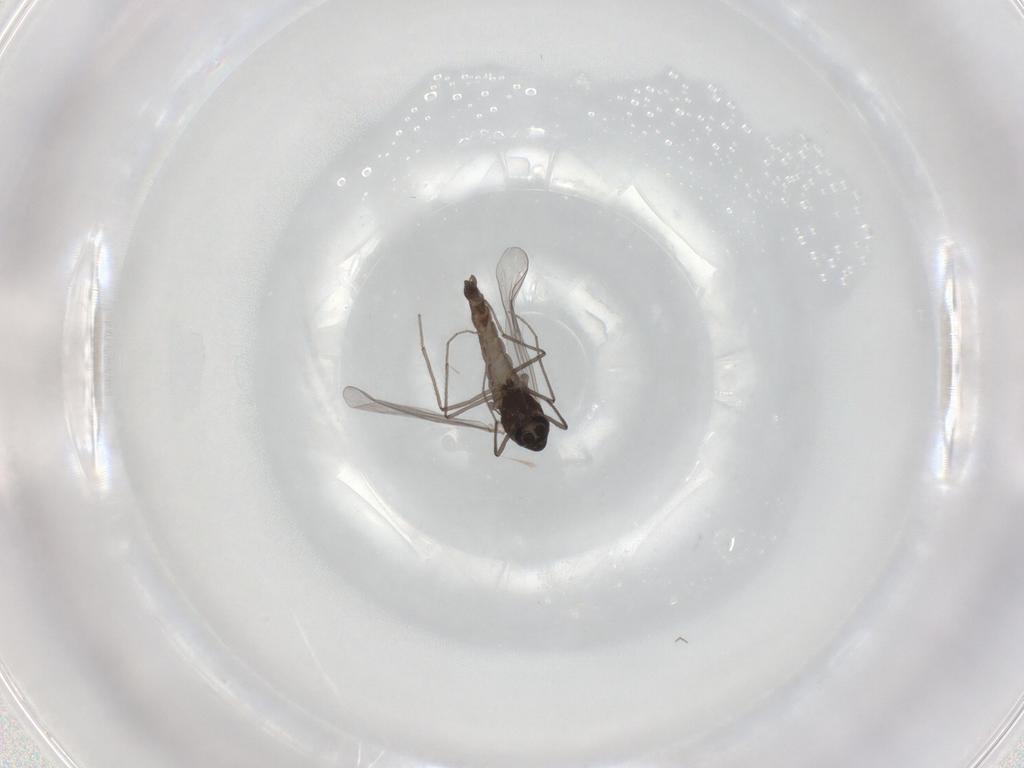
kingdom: Animalia
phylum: Arthropoda
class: Insecta
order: Diptera
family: Chironomidae
